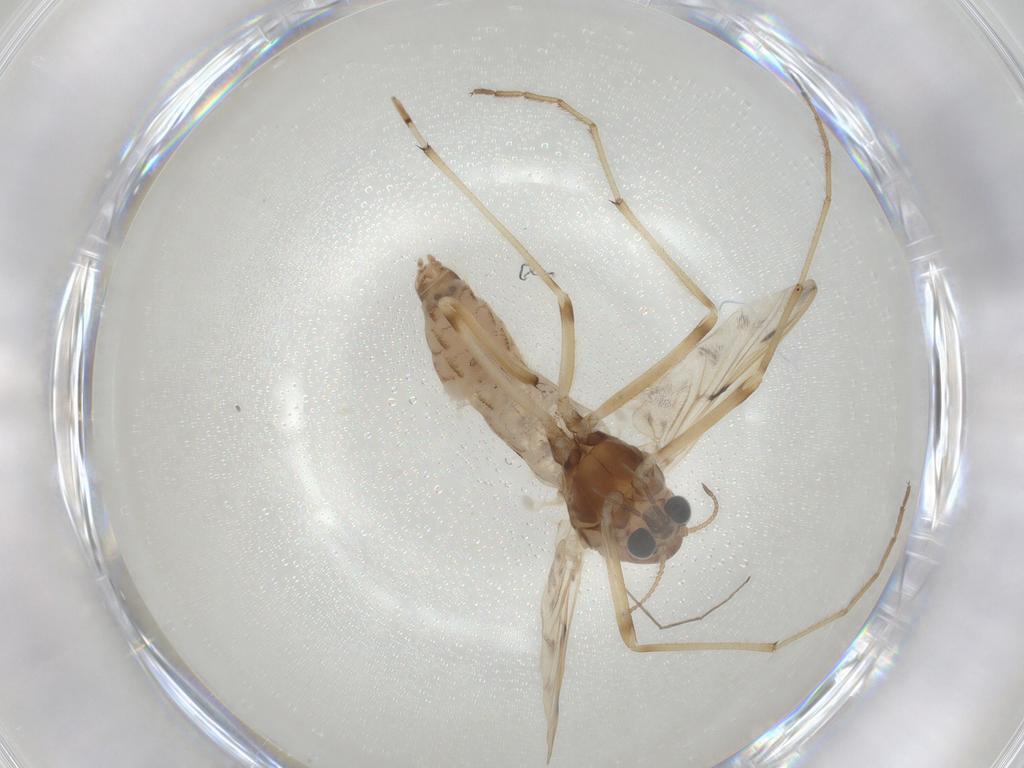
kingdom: Animalia
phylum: Arthropoda
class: Insecta
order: Diptera
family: Chironomidae
